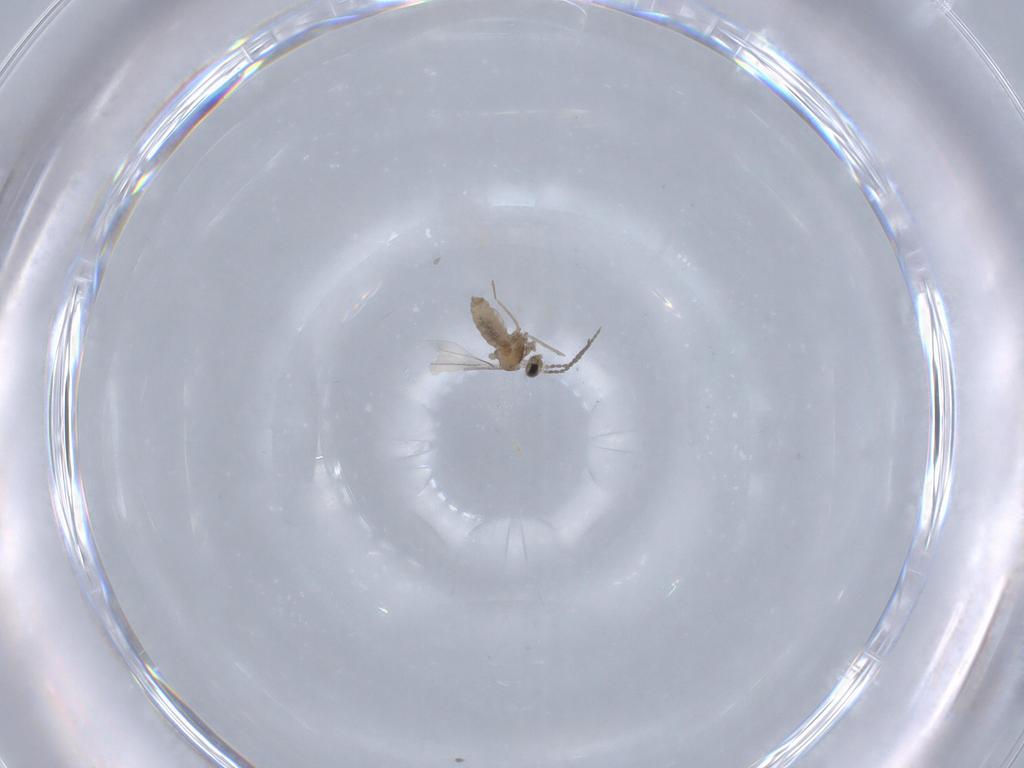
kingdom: Animalia
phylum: Arthropoda
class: Insecta
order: Diptera
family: Cecidomyiidae
